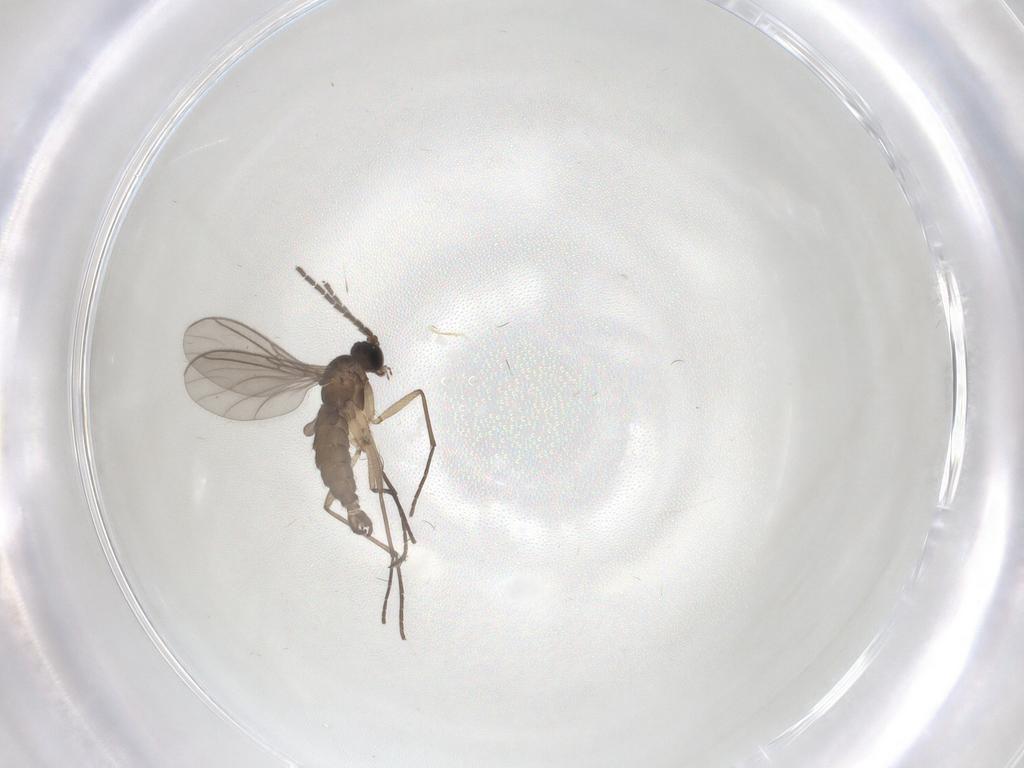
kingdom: Animalia
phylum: Arthropoda
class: Insecta
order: Diptera
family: Chironomidae
